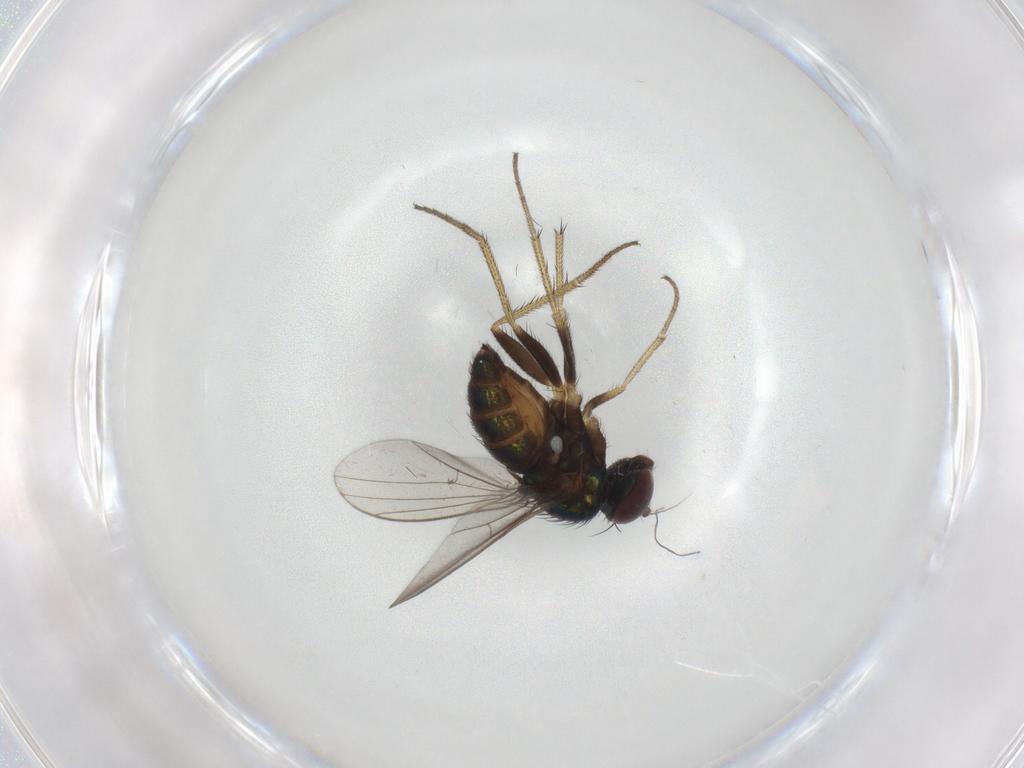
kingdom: Animalia
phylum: Arthropoda
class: Insecta
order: Diptera
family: Dolichopodidae
